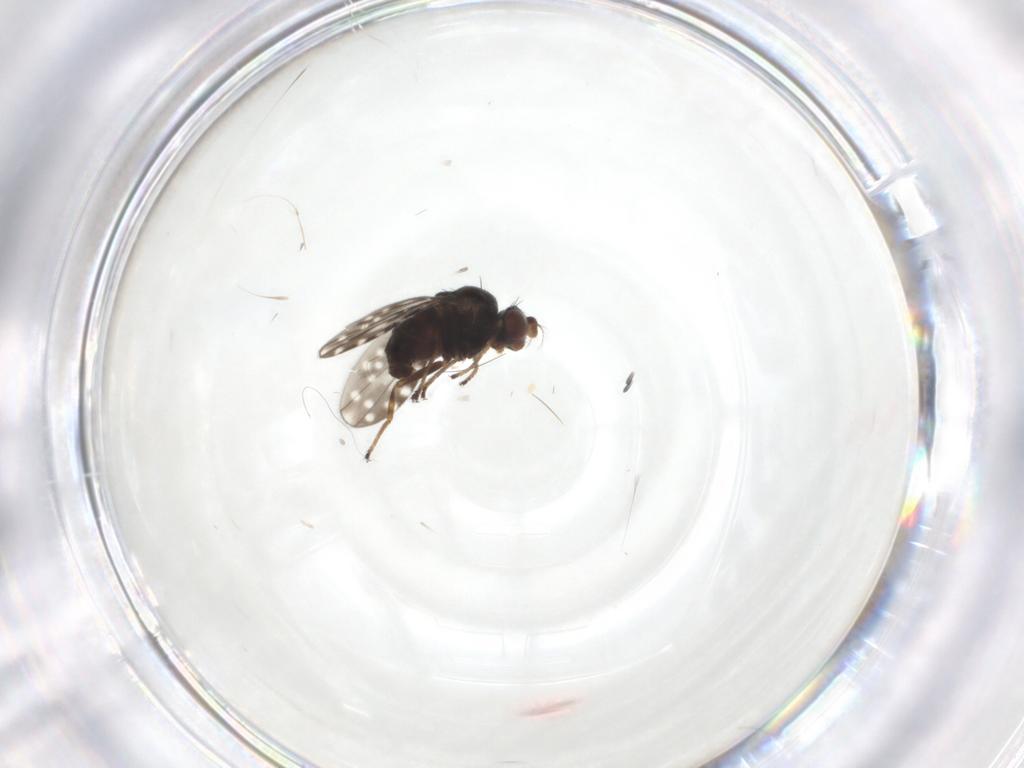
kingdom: Animalia
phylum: Arthropoda
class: Insecta
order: Diptera
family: Ephydridae
